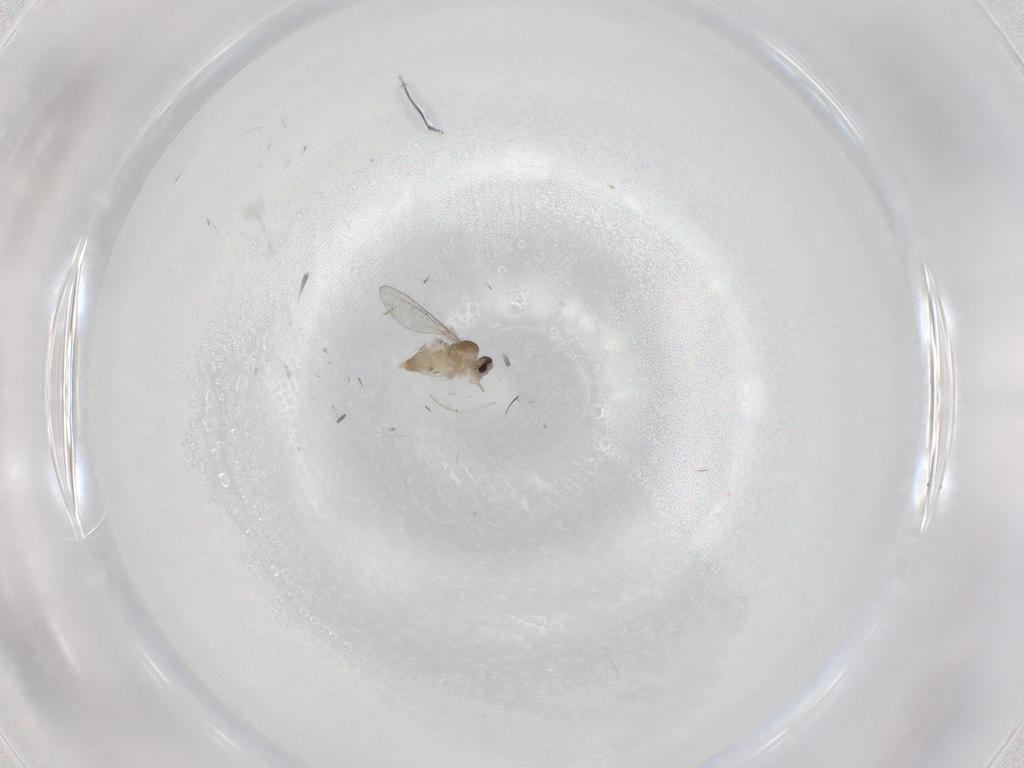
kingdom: Animalia
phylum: Arthropoda
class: Insecta
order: Diptera
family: Cecidomyiidae
